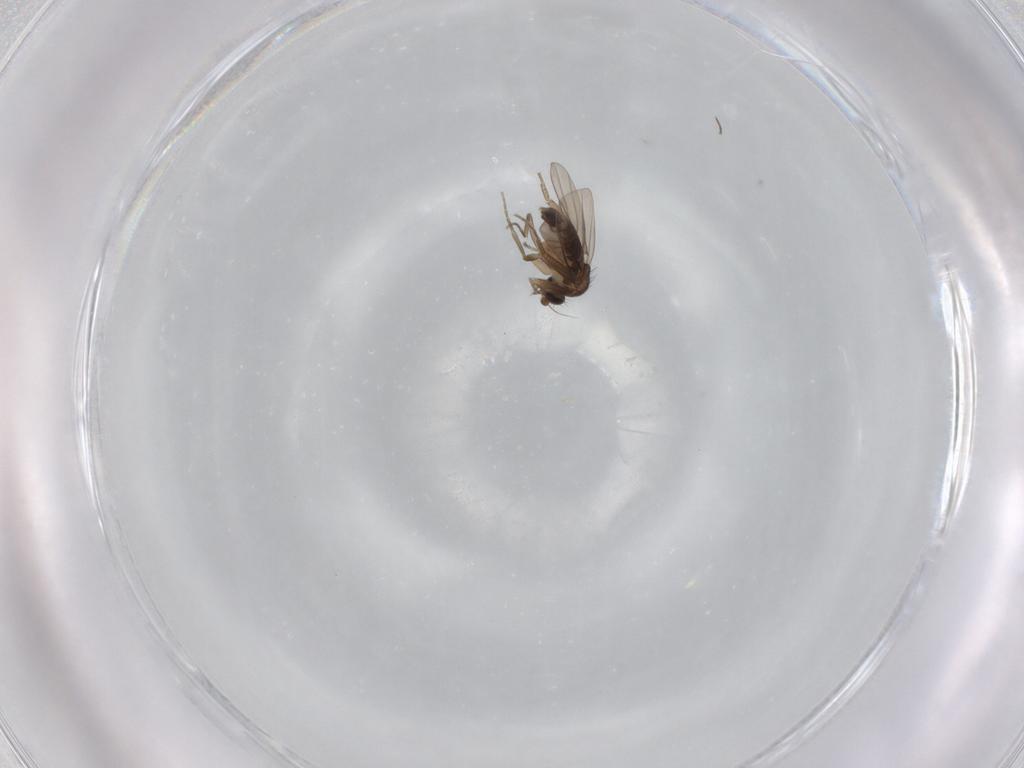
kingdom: Animalia
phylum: Arthropoda
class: Insecta
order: Diptera
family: Phoridae
